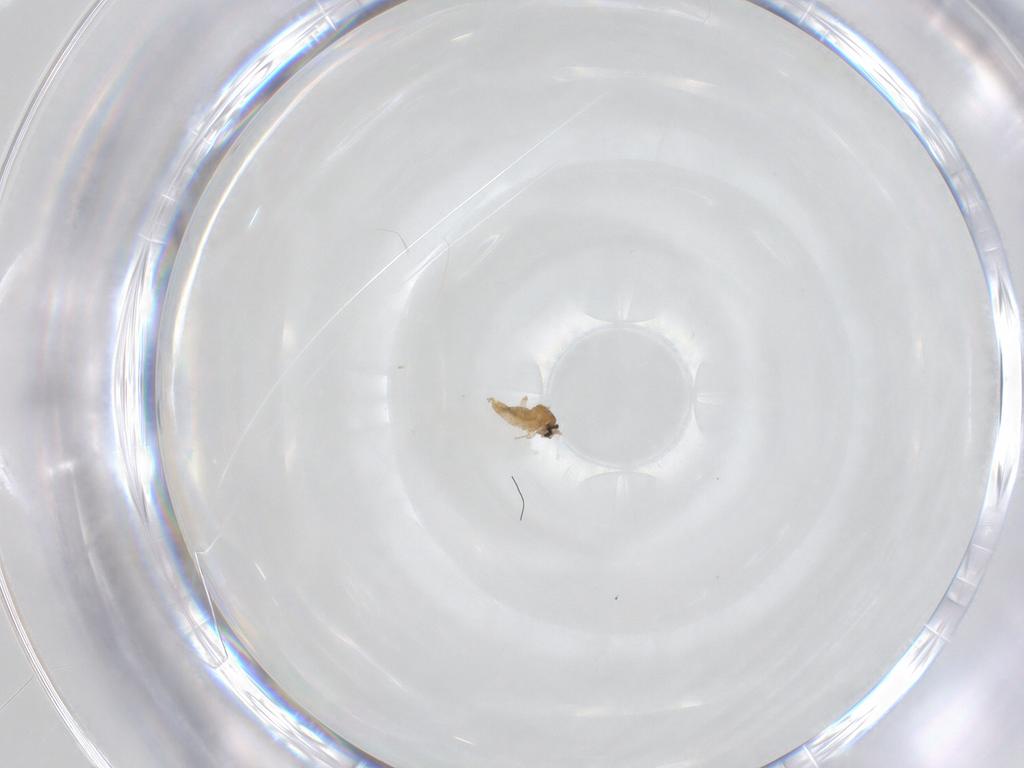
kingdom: Animalia
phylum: Arthropoda
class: Insecta
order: Diptera
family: Cecidomyiidae
